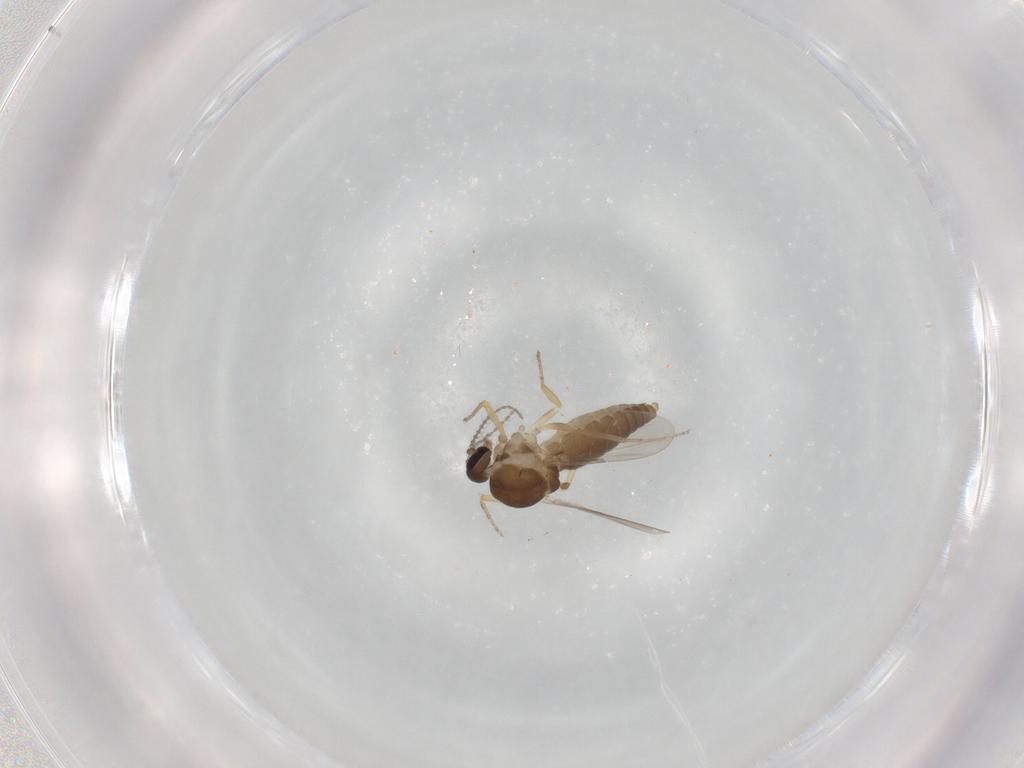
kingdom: Animalia
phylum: Arthropoda
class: Insecta
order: Diptera
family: Ceratopogonidae
